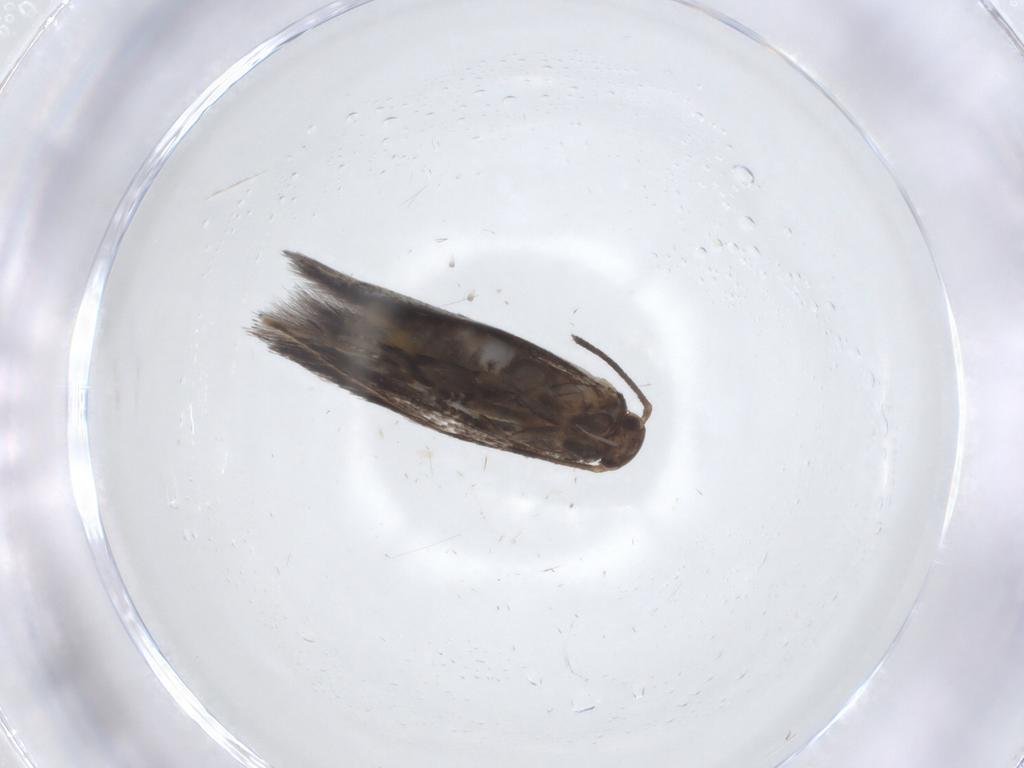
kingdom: Animalia
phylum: Arthropoda
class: Insecta
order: Lepidoptera
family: Elachistidae
